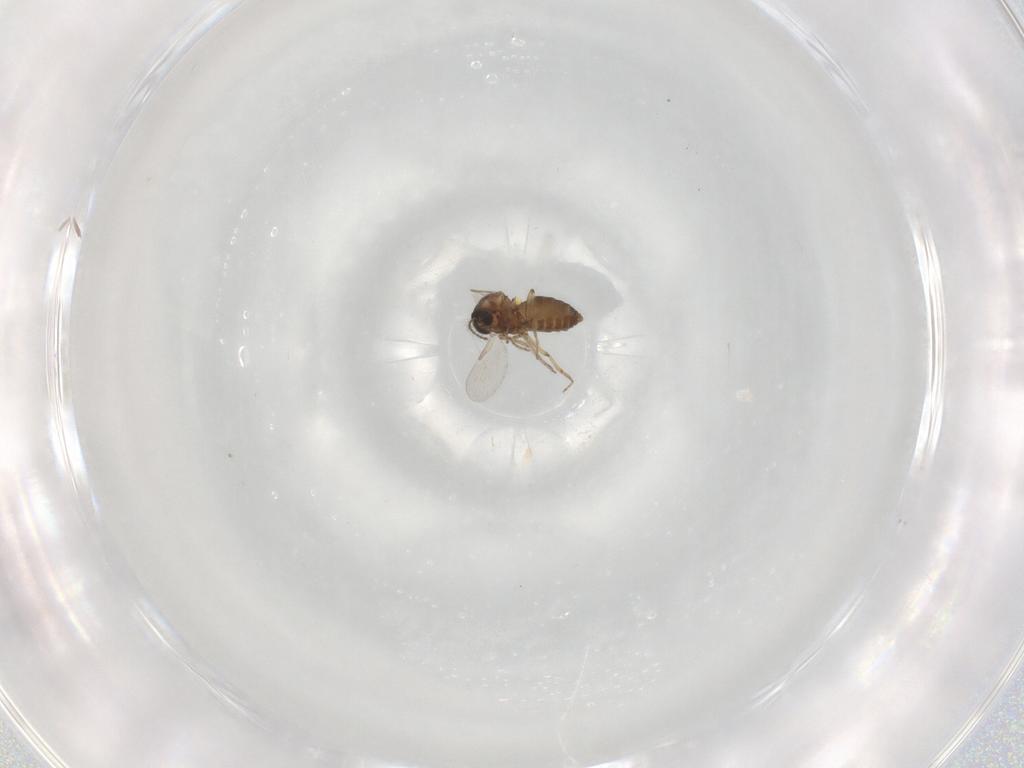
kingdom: Animalia
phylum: Arthropoda
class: Insecta
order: Diptera
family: Ceratopogonidae
